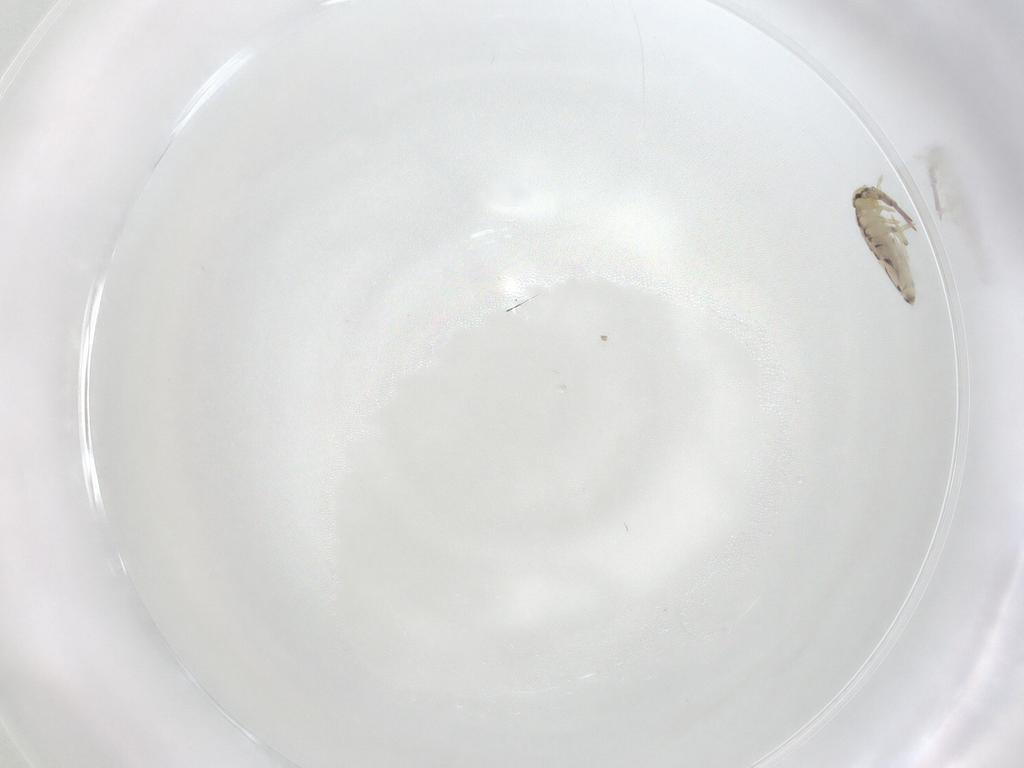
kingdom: Animalia
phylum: Arthropoda
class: Collembola
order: Entomobryomorpha
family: Entomobryidae
